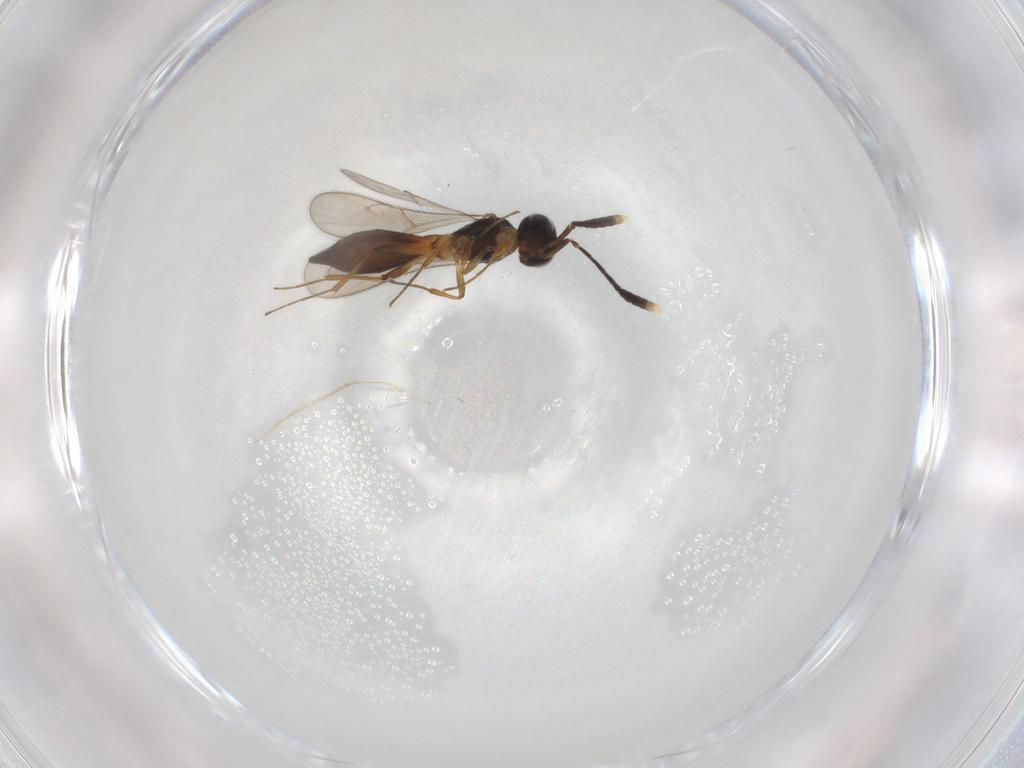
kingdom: Animalia
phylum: Arthropoda
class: Insecta
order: Hymenoptera
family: Scelionidae
